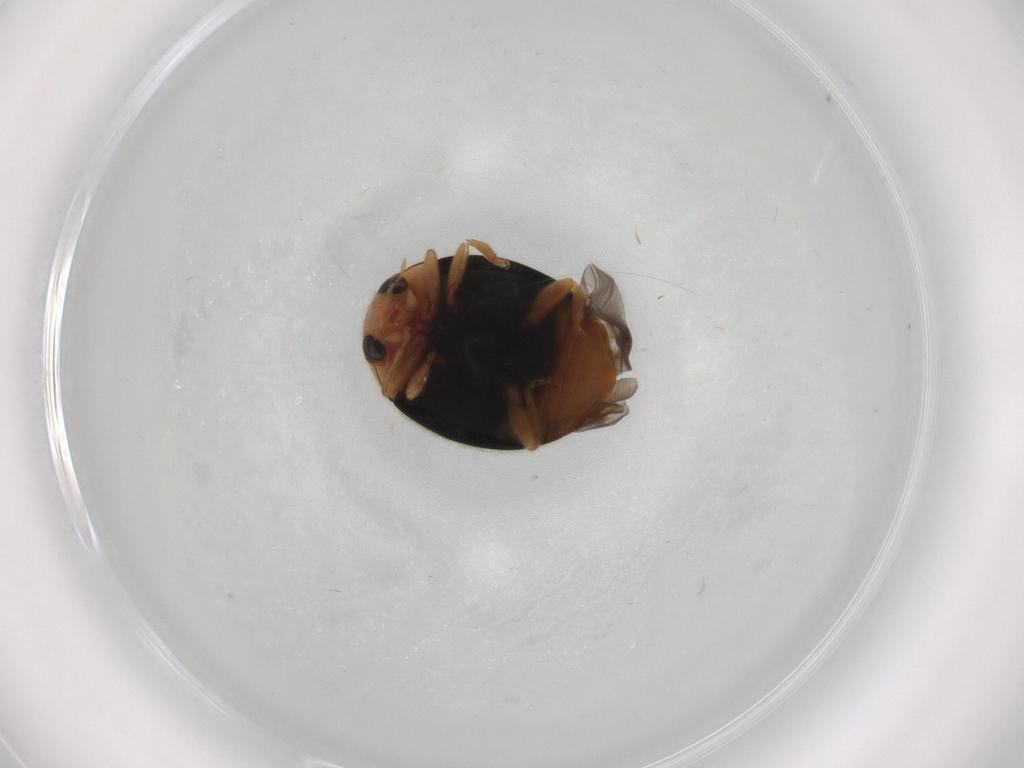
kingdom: Animalia
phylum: Arthropoda
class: Insecta
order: Coleoptera
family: Coccinellidae
